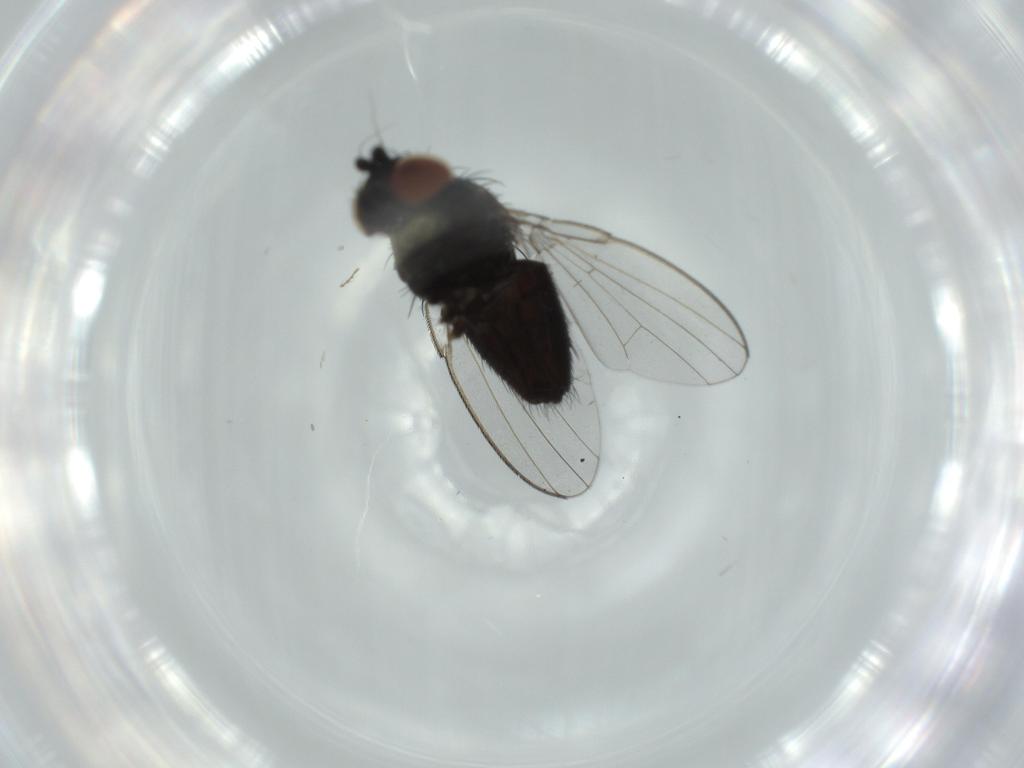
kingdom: Animalia
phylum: Arthropoda
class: Insecta
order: Diptera
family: Milichiidae
